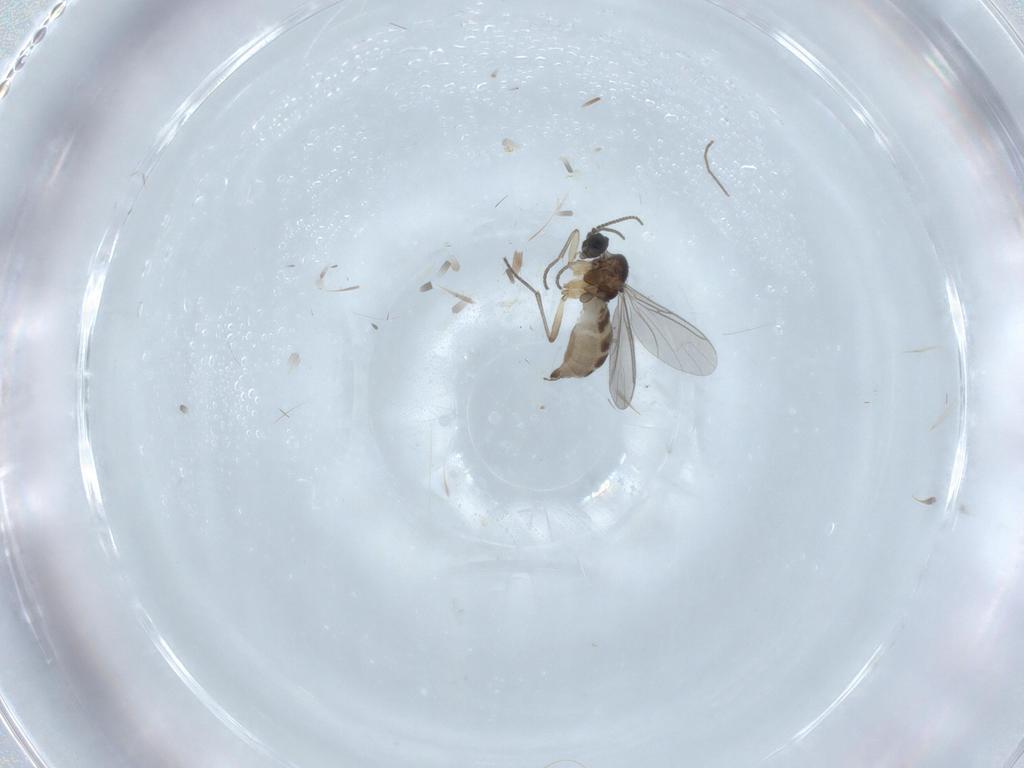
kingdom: Animalia
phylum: Arthropoda
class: Insecta
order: Diptera
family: Sciaridae
